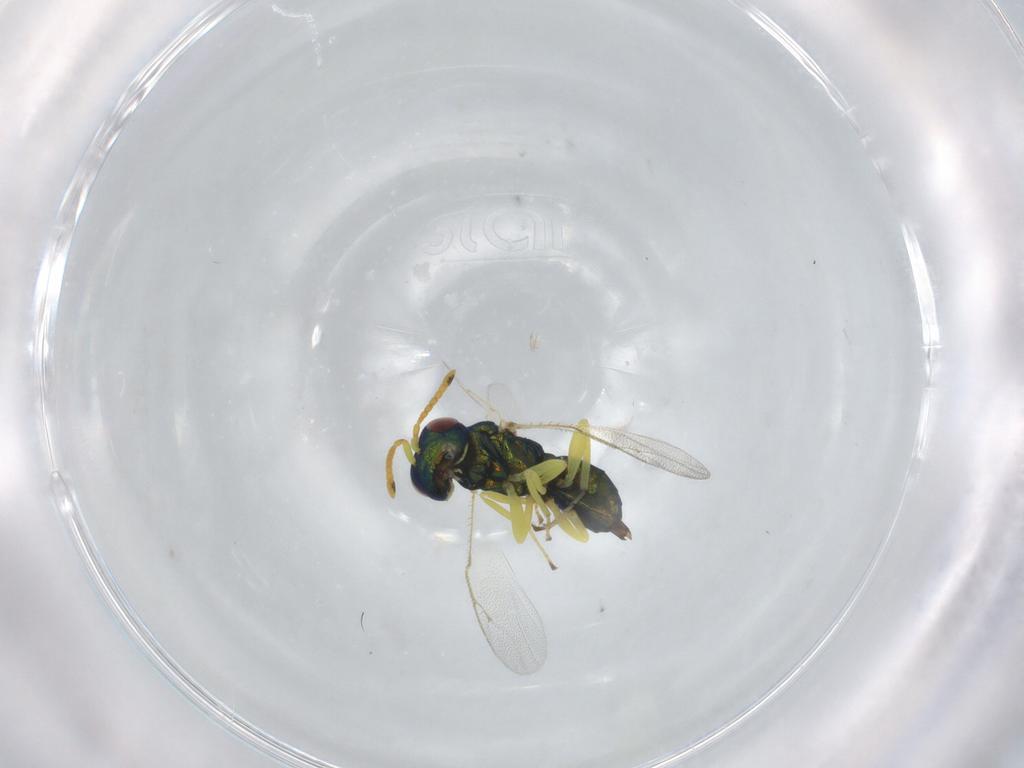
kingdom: Animalia
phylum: Arthropoda
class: Insecta
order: Hymenoptera
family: Pteromalidae
